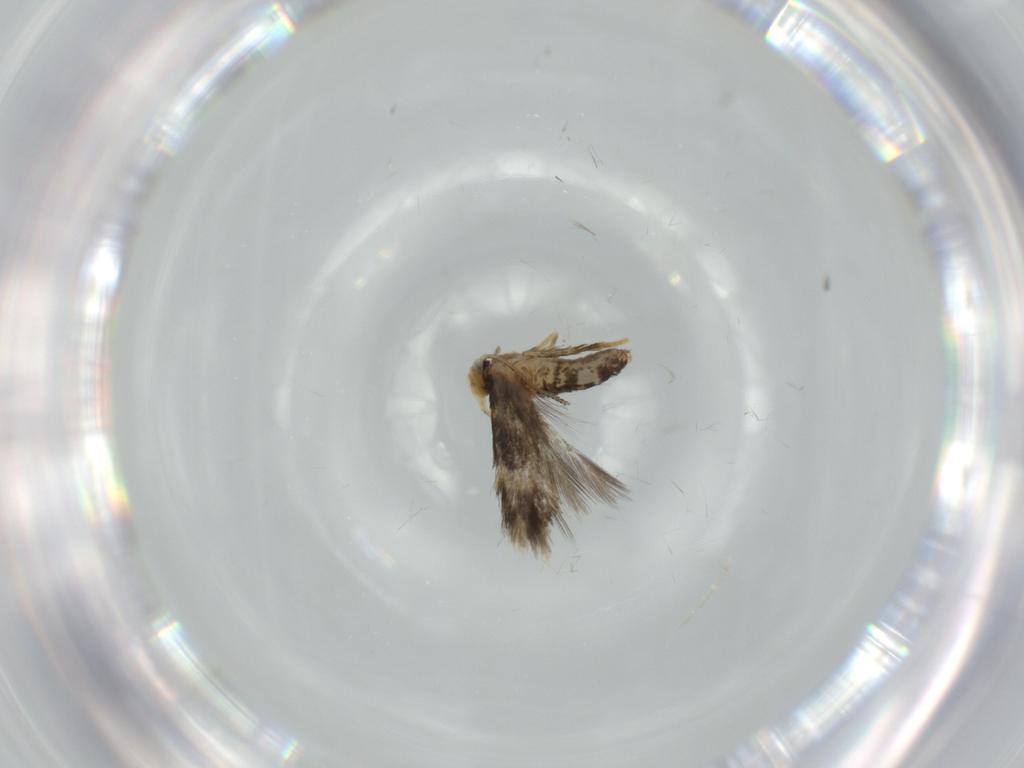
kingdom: Animalia
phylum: Arthropoda
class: Insecta
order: Lepidoptera
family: Nepticulidae
